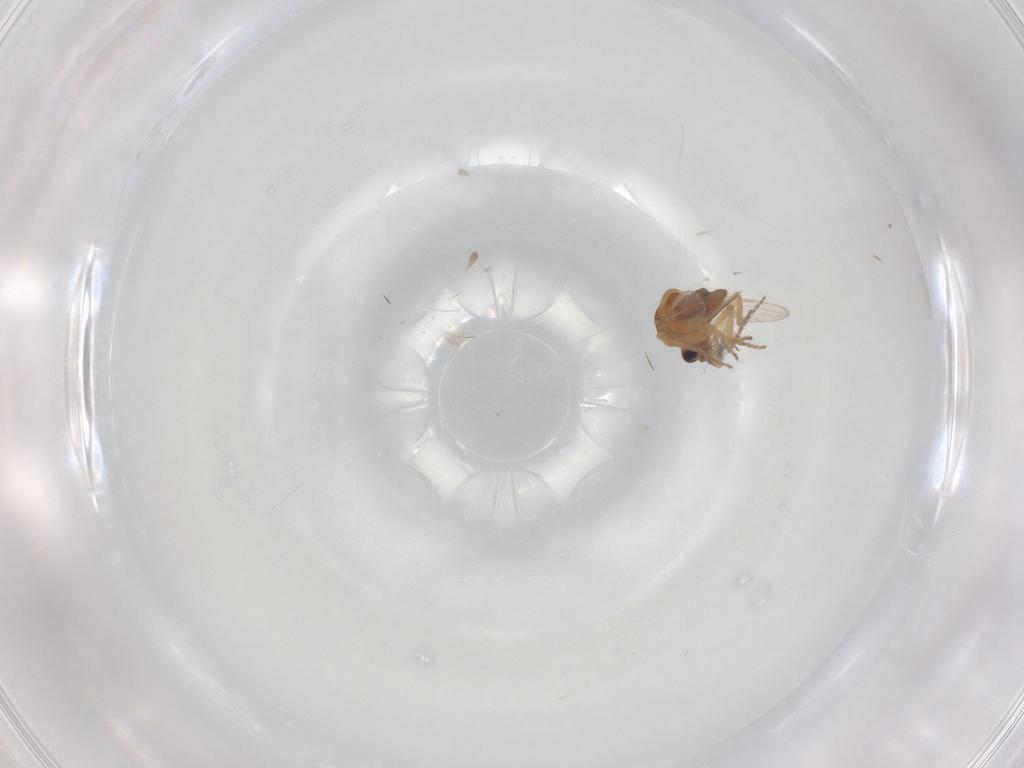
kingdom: Animalia
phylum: Arthropoda
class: Insecta
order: Diptera
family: Ceratopogonidae
